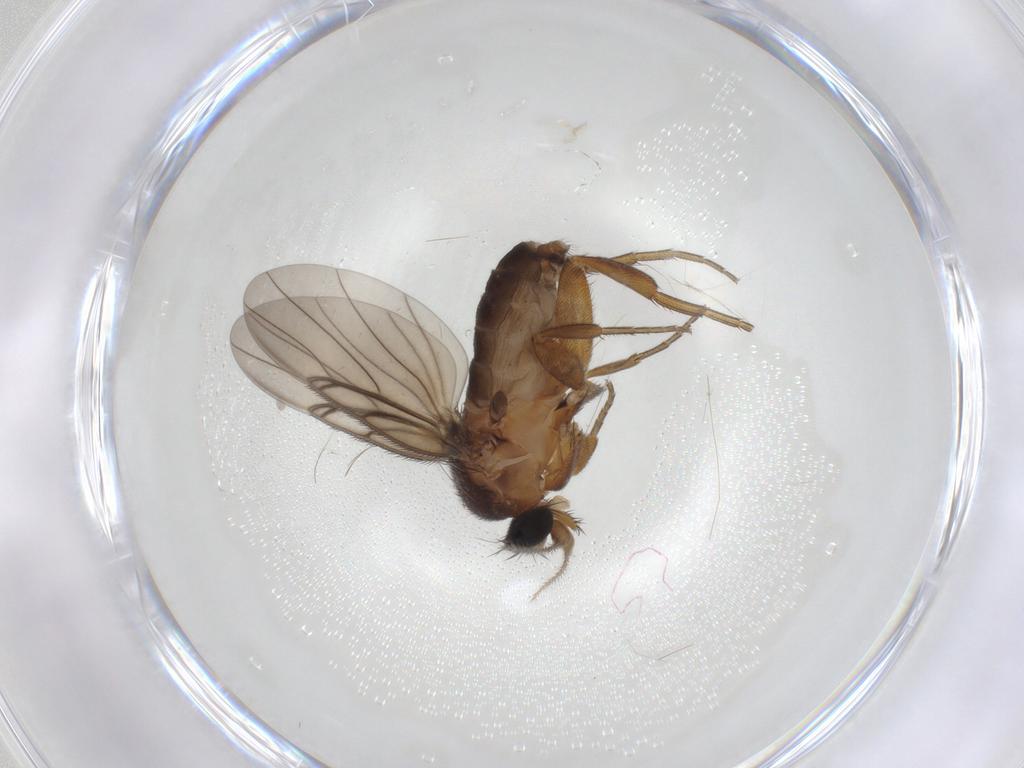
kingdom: Animalia
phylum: Arthropoda
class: Insecta
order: Diptera
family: Phoridae
